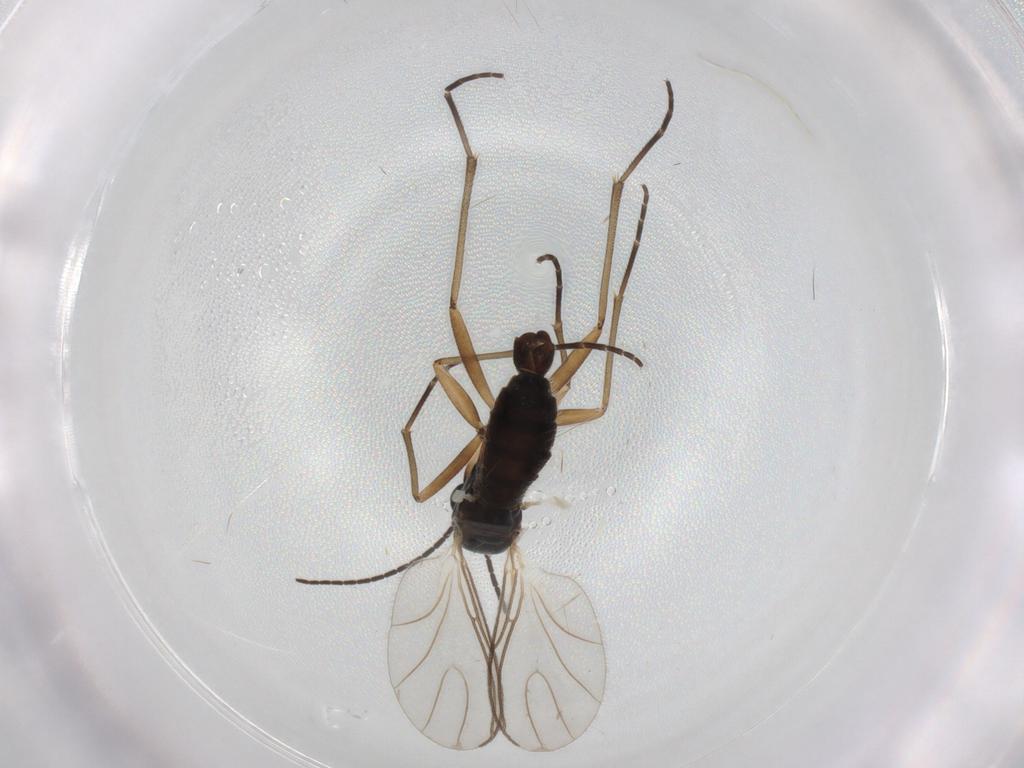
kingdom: Animalia
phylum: Arthropoda
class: Insecta
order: Diptera
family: Sciaridae
